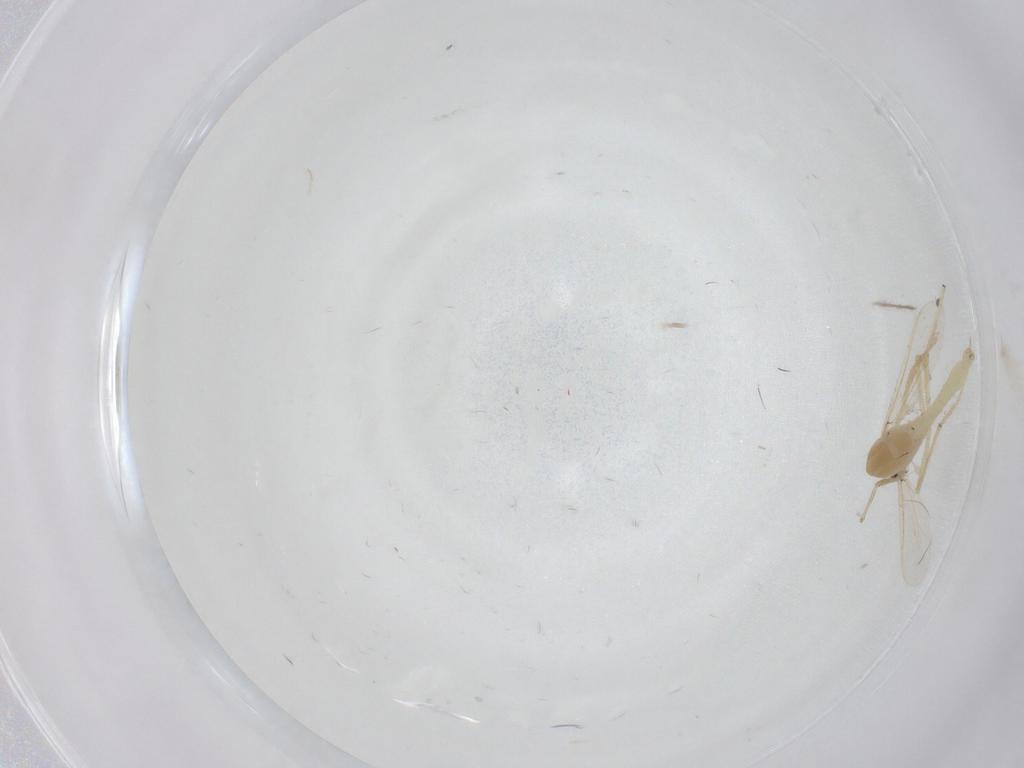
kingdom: Animalia
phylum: Arthropoda
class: Insecta
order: Diptera
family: Chironomidae
